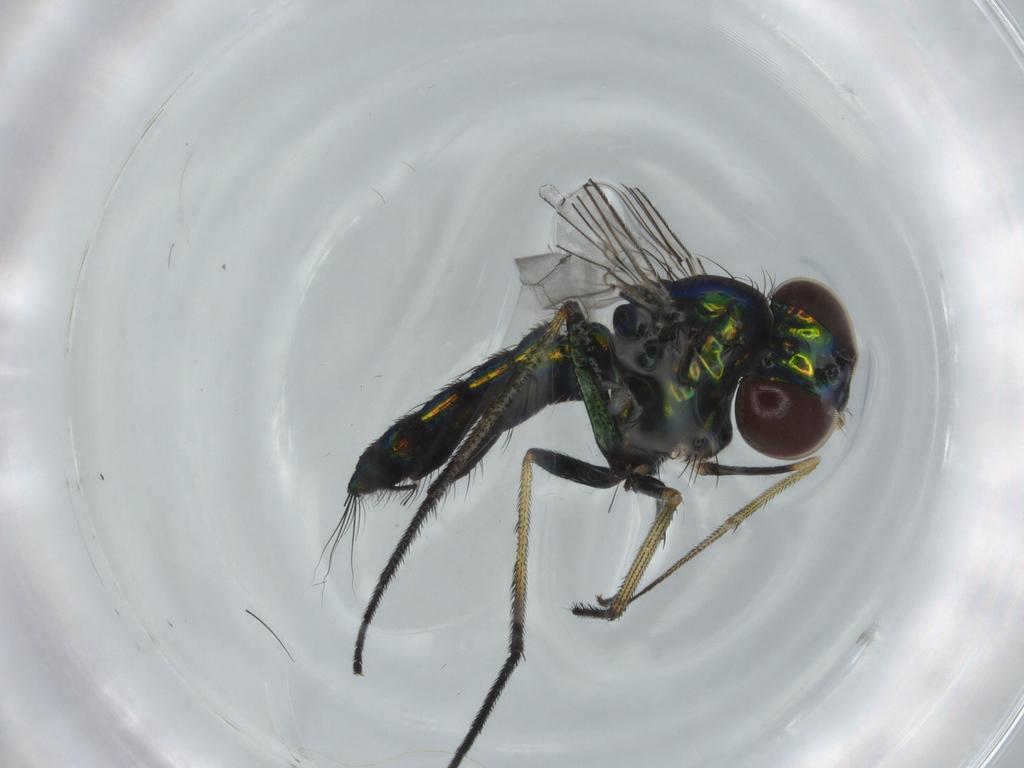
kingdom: Animalia
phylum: Arthropoda
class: Insecta
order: Diptera
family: Dolichopodidae
